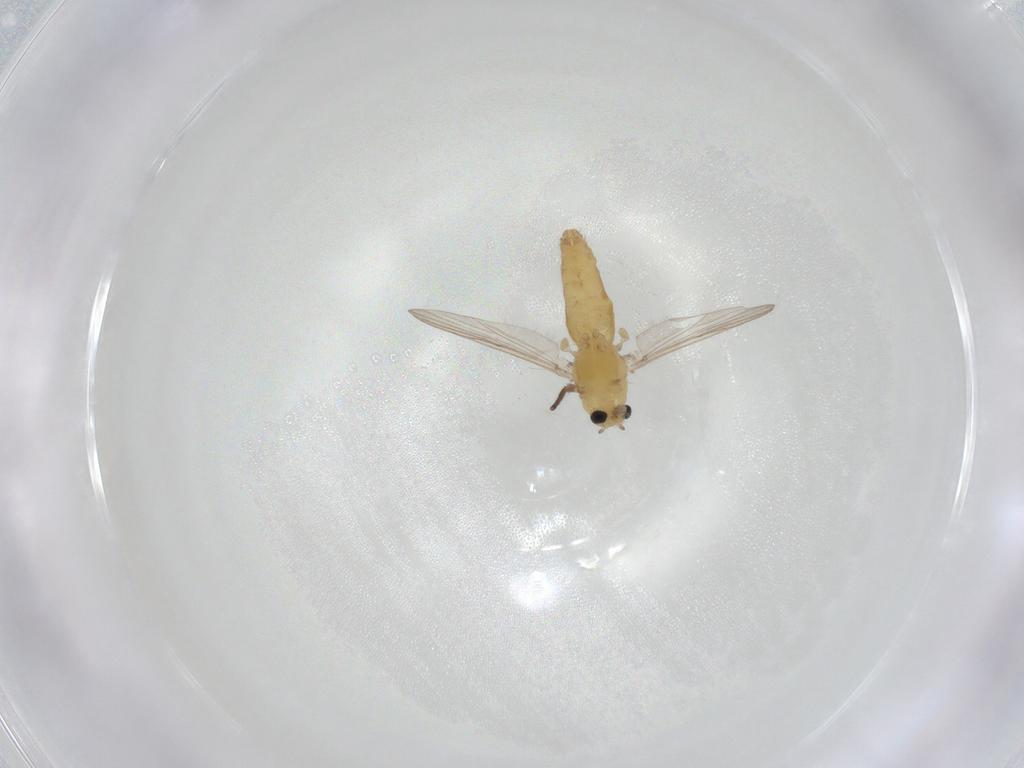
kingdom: Animalia
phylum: Arthropoda
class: Insecta
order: Diptera
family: Chironomidae
